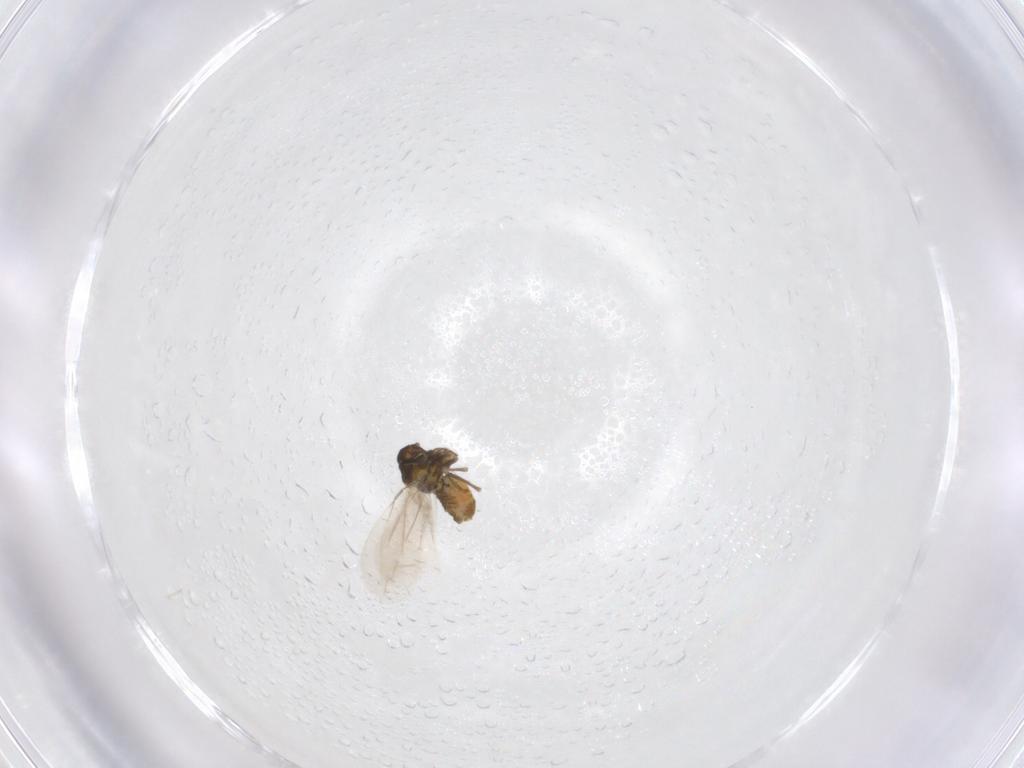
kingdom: Animalia
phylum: Arthropoda
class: Insecta
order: Hemiptera
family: Aleyrodidae
